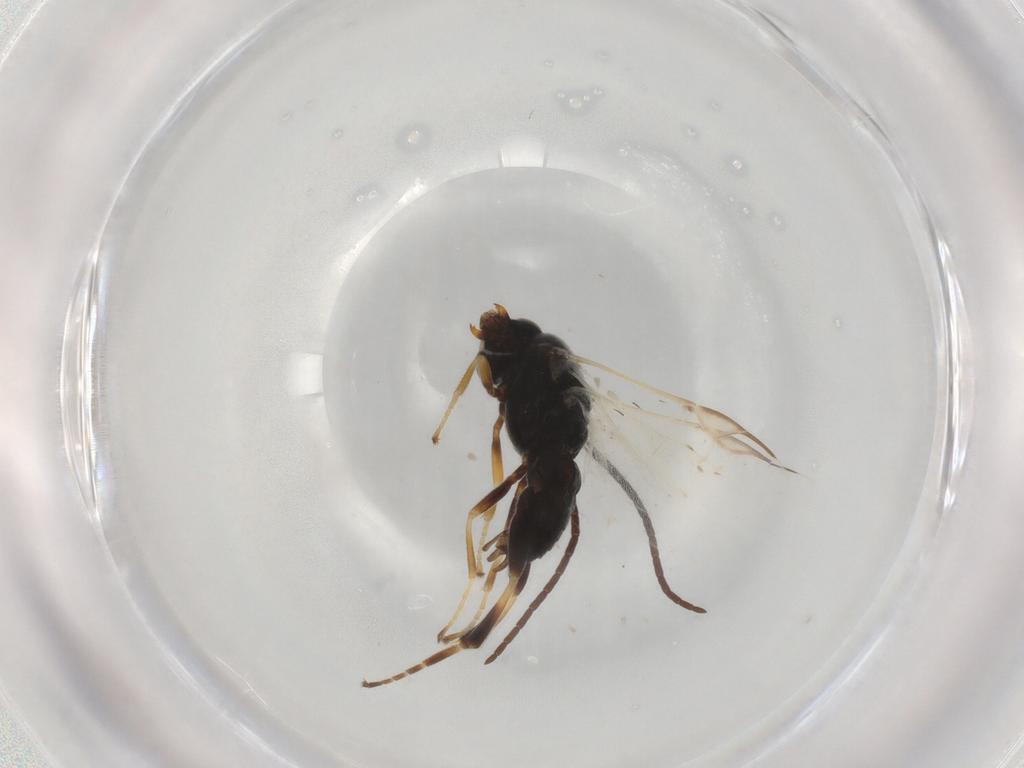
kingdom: Animalia
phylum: Arthropoda
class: Insecta
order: Hymenoptera
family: Braconidae
